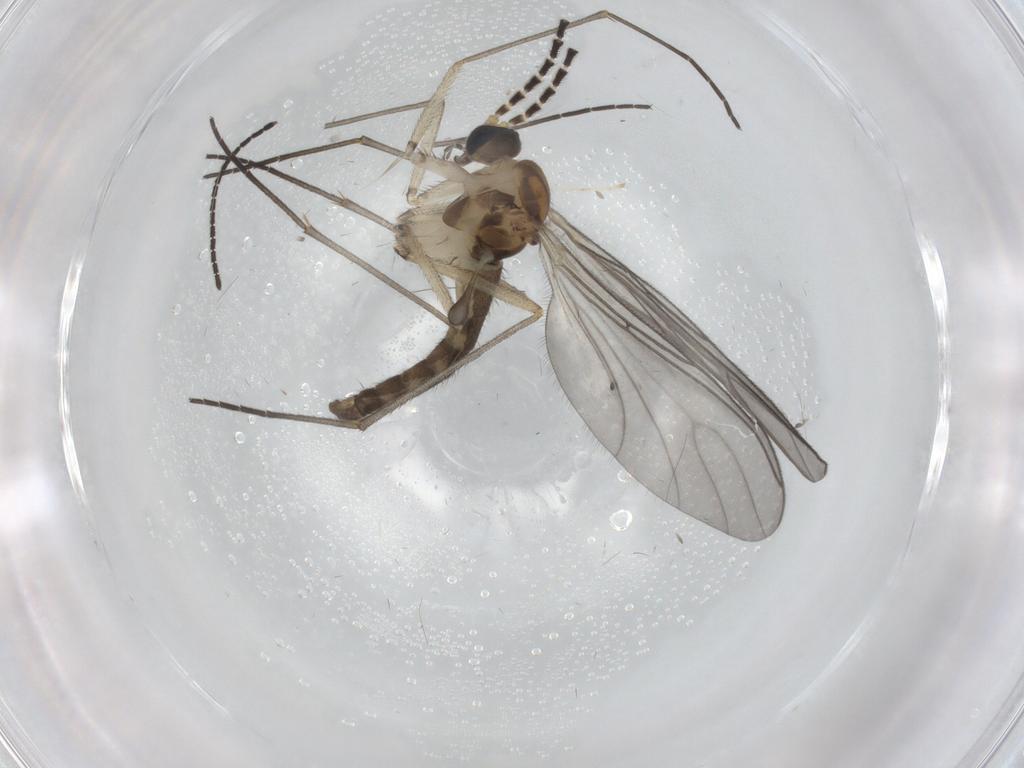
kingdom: Animalia
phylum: Arthropoda
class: Insecta
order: Diptera
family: Sciaridae
